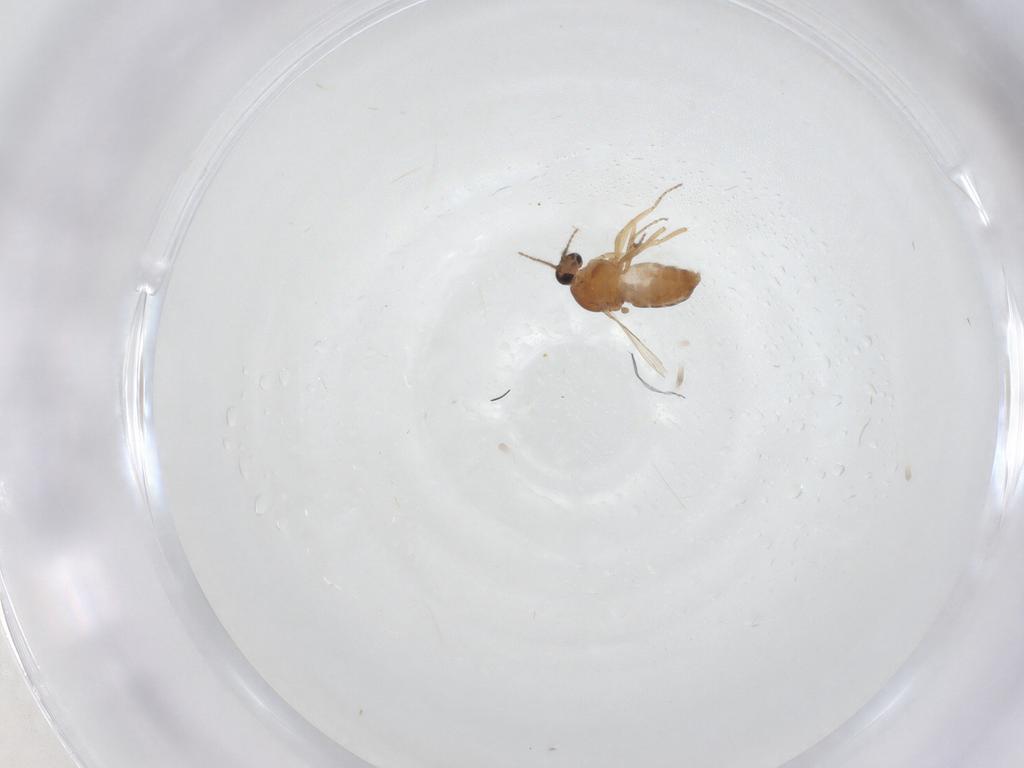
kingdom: Animalia
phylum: Arthropoda
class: Insecta
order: Diptera
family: Ceratopogonidae
